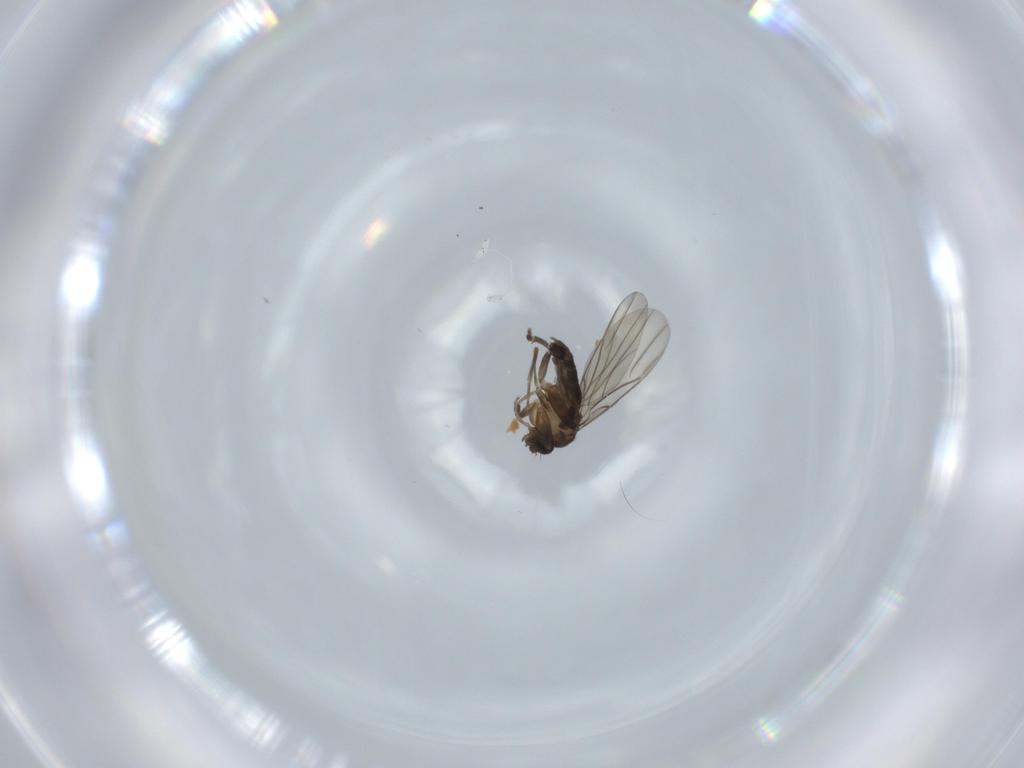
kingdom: Animalia
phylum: Arthropoda
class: Insecta
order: Diptera
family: Phoridae
